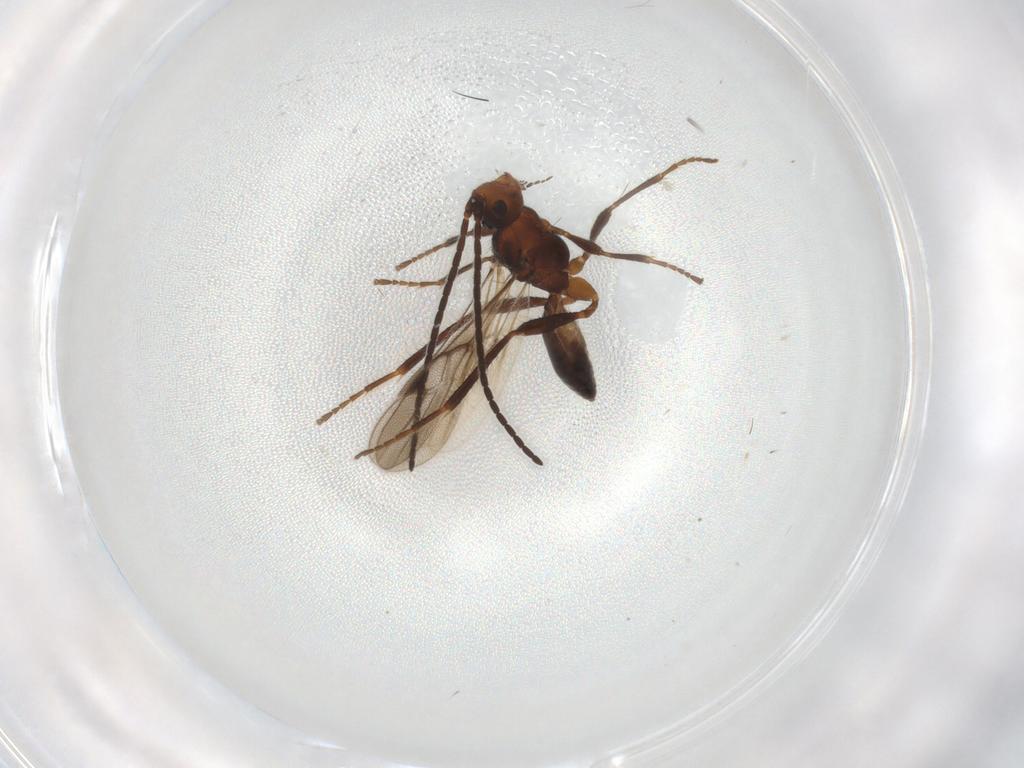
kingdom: Animalia
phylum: Arthropoda
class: Insecta
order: Hymenoptera
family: Braconidae
